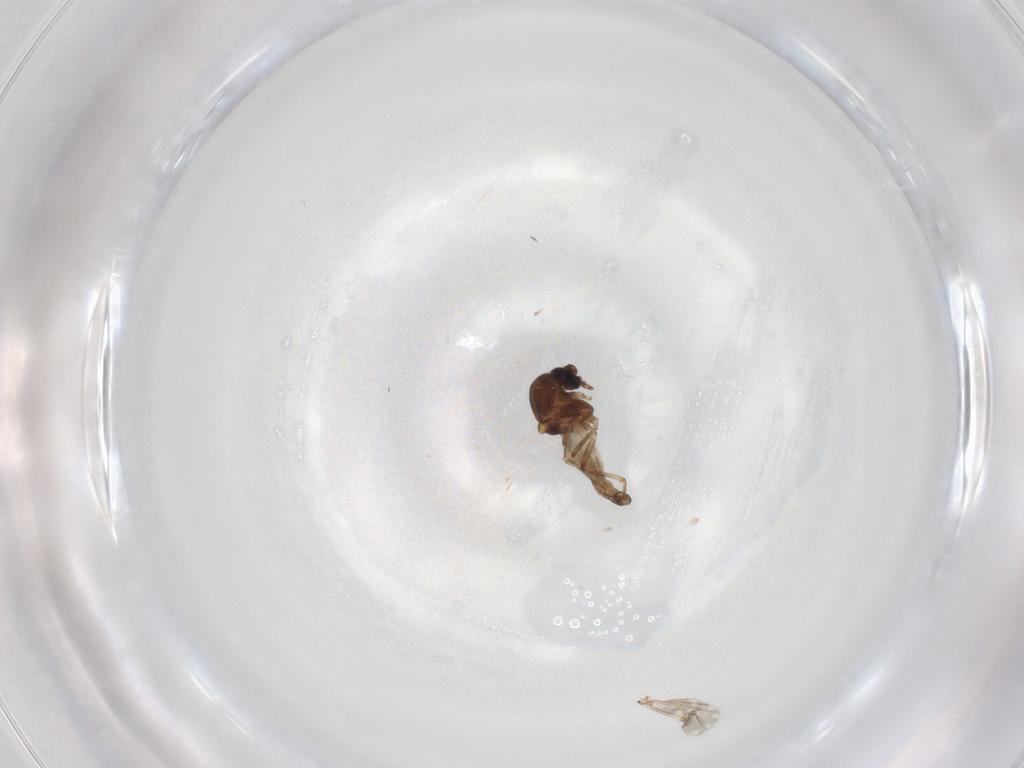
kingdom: Animalia
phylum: Arthropoda
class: Insecta
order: Diptera
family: Ceratopogonidae
